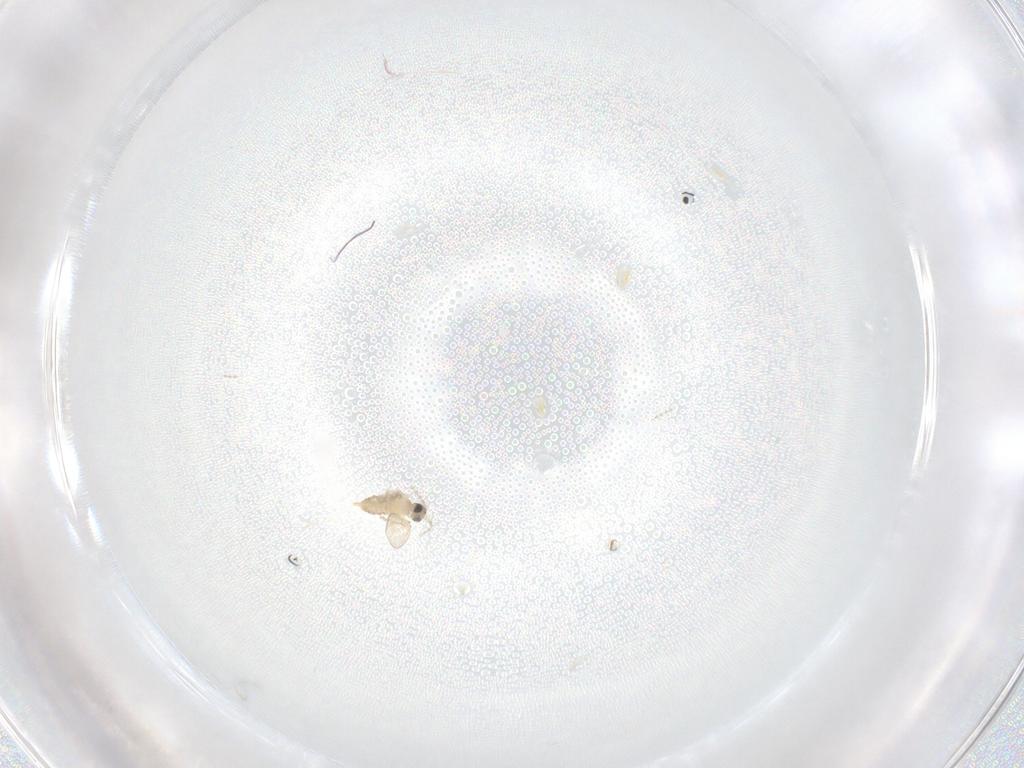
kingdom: Animalia
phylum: Arthropoda
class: Insecta
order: Diptera
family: Cecidomyiidae
